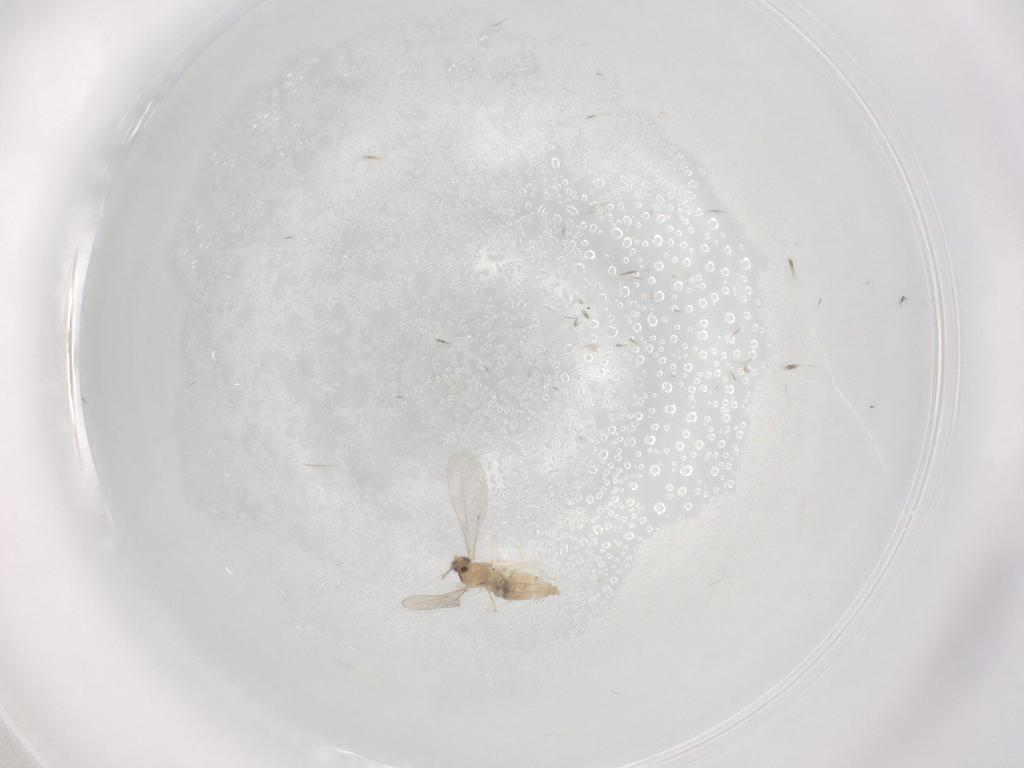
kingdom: Animalia
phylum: Arthropoda
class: Insecta
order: Diptera
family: Cecidomyiidae
